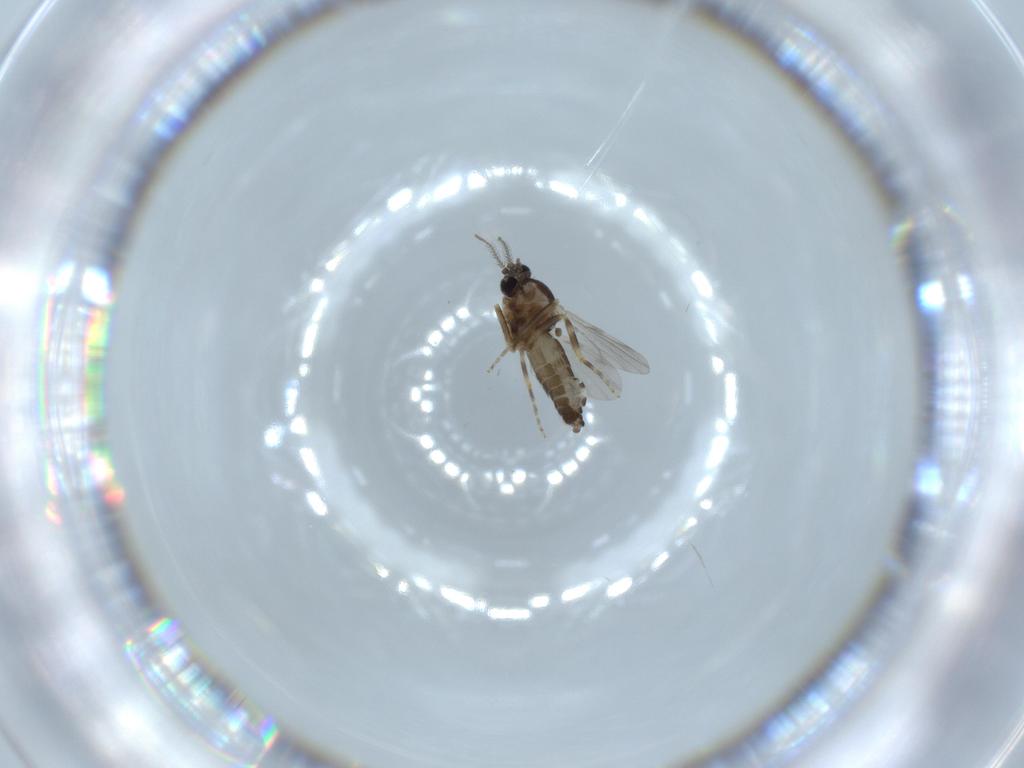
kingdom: Animalia
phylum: Arthropoda
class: Insecta
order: Diptera
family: Ceratopogonidae
